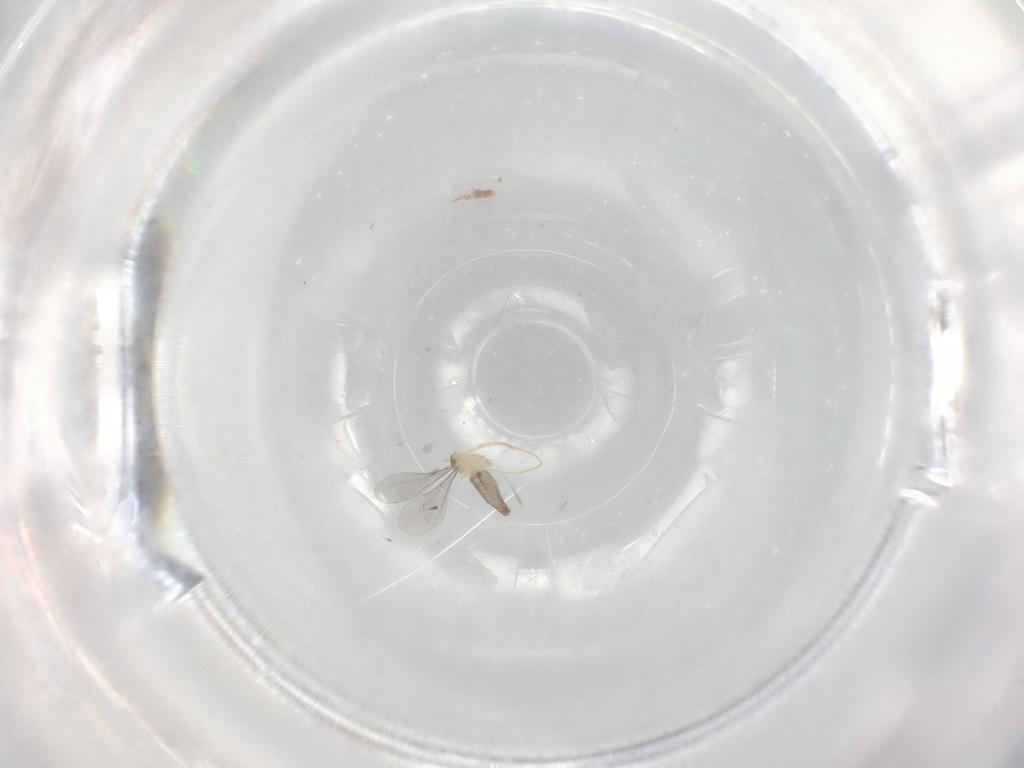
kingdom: Animalia
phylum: Arthropoda
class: Insecta
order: Diptera
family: Cecidomyiidae
